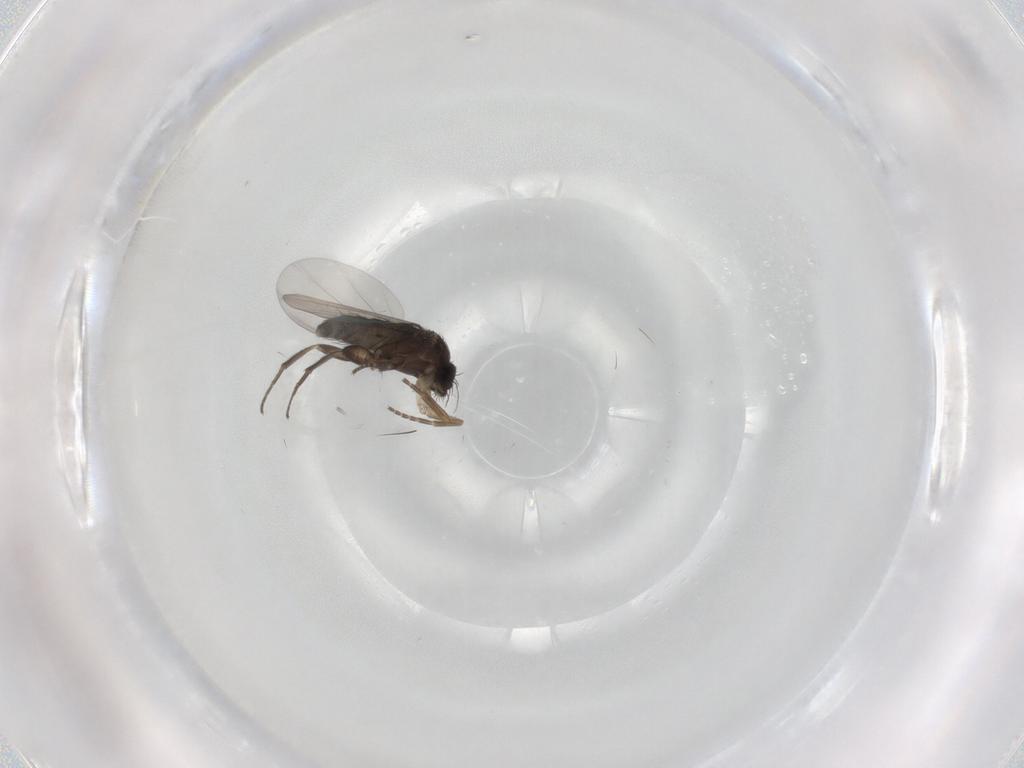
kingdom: Animalia
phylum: Arthropoda
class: Insecta
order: Diptera
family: Phoridae
